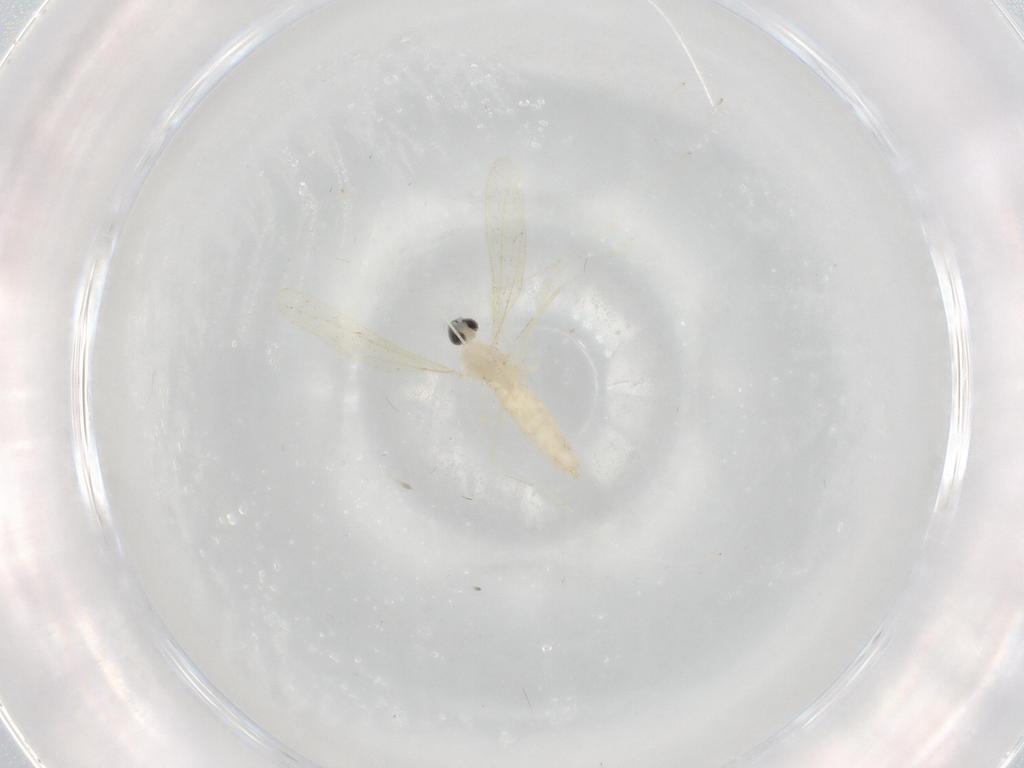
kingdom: Animalia
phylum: Arthropoda
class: Insecta
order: Diptera
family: Cecidomyiidae
